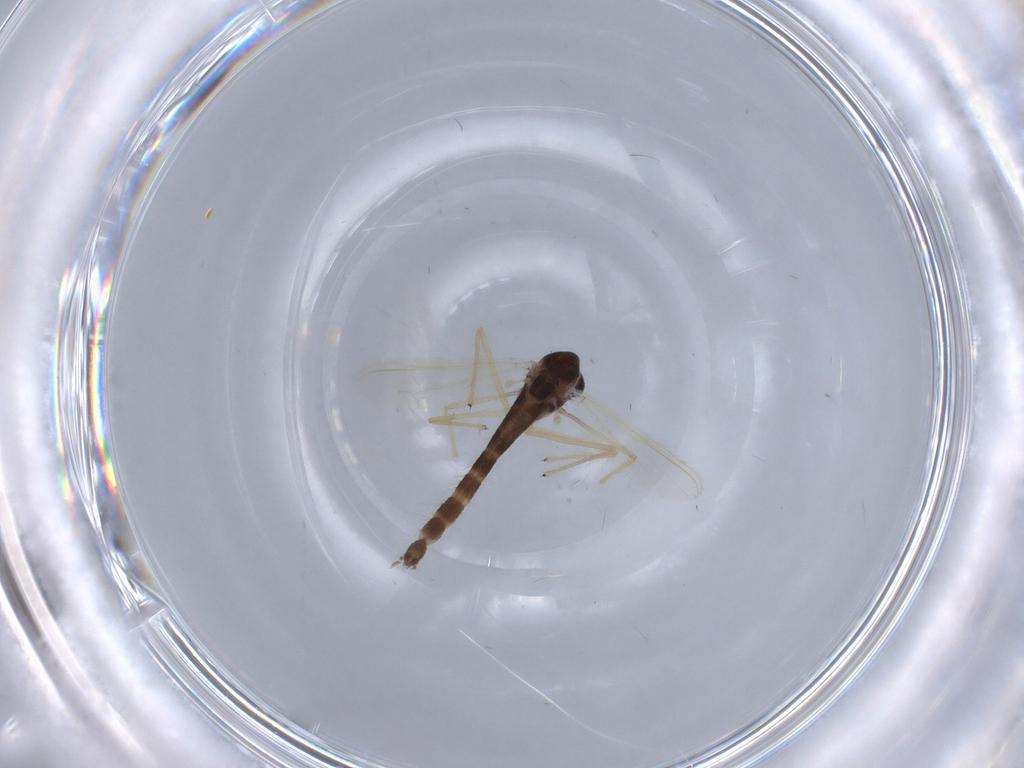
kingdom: Animalia
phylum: Arthropoda
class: Insecta
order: Diptera
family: Chironomidae
